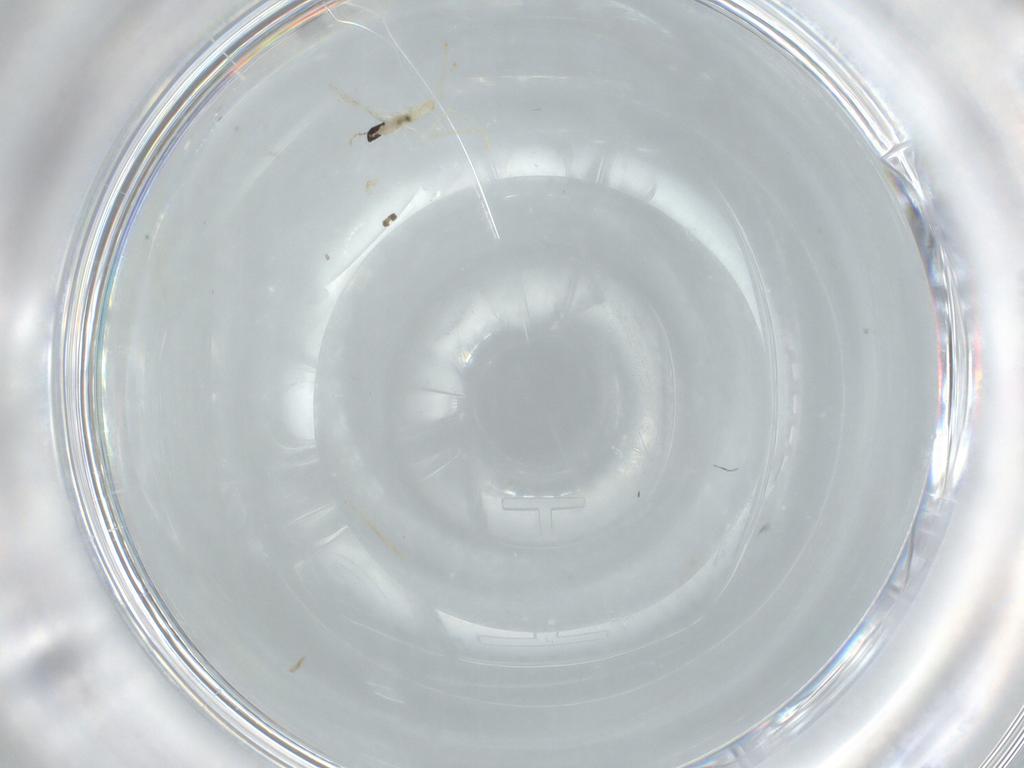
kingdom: Animalia
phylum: Arthropoda
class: Insecta
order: Diptera
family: Cecidomyiidae
